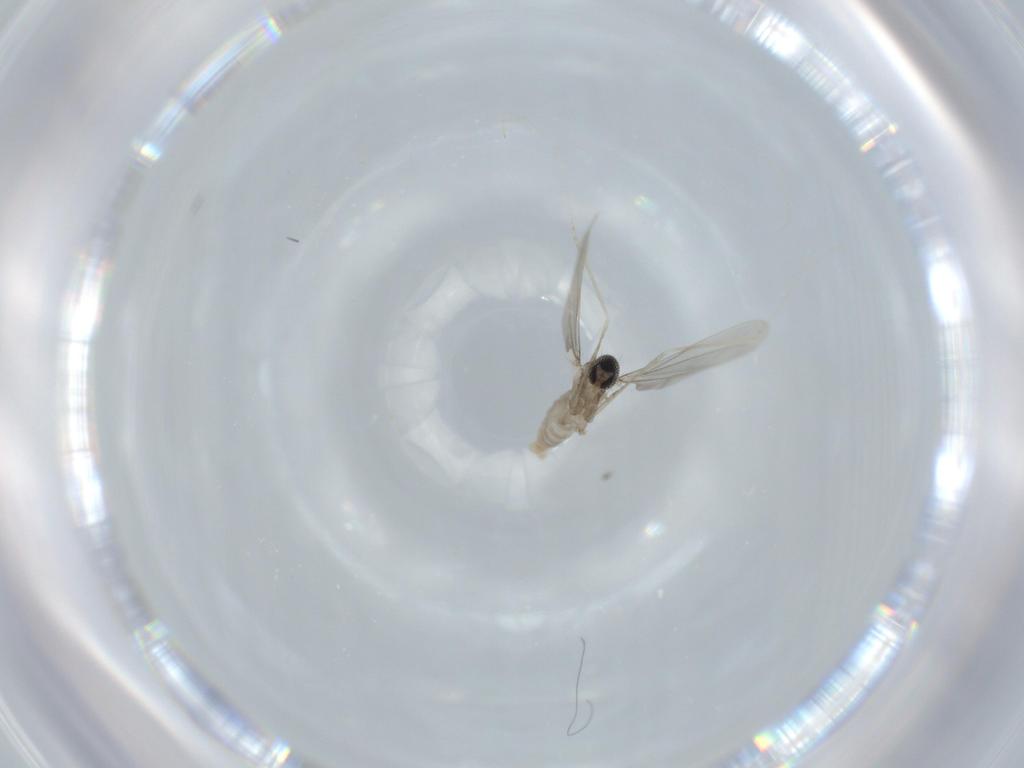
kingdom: Animalia
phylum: Arthropoda
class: Insecta
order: Diptera
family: Cecidomyiidae
